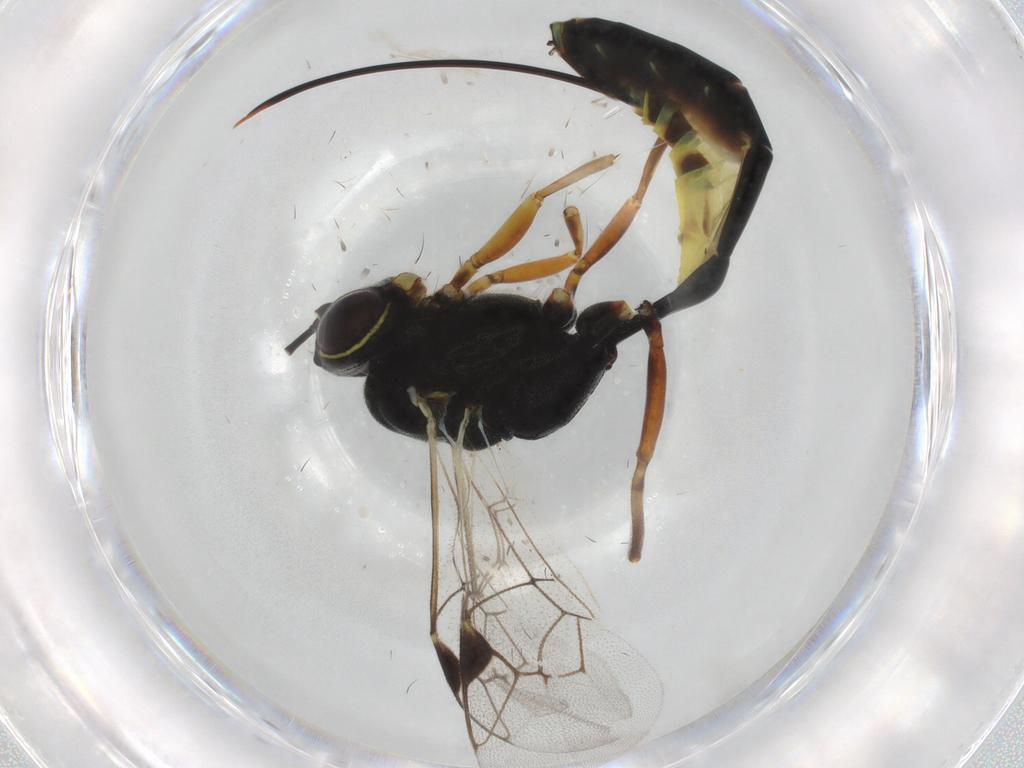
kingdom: Animalia
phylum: Arthropoda
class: Insecta
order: Hymenoptera
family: Ichneumonidae
